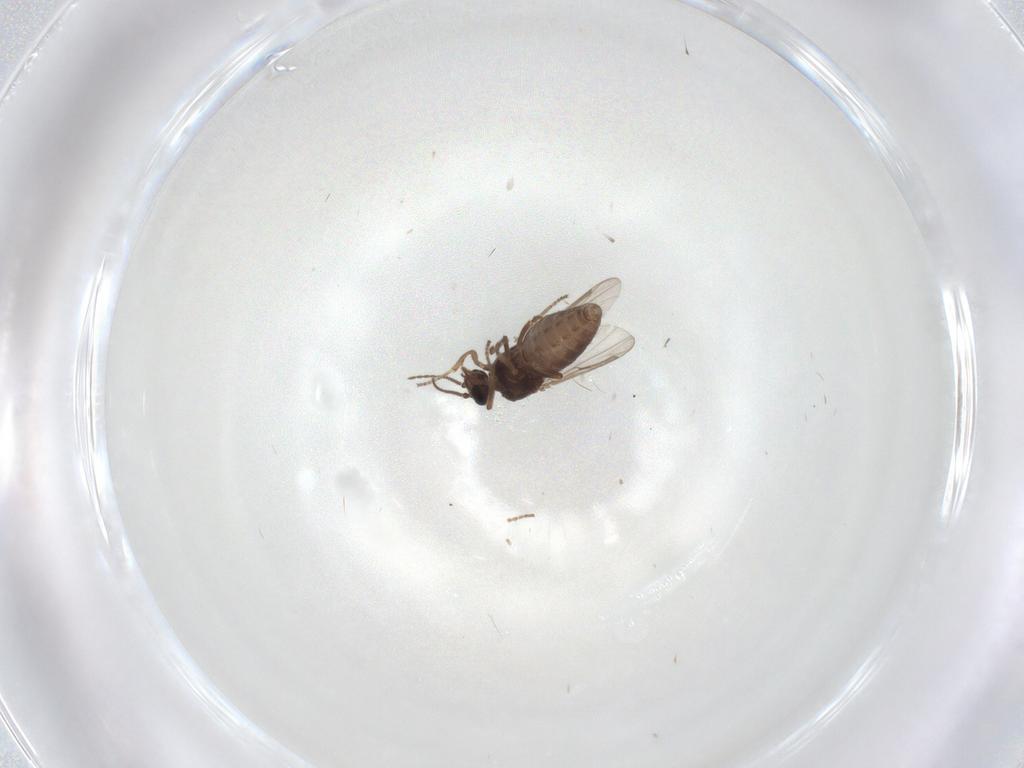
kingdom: Animalia
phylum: Arthropoda
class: Insecta
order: Diptera
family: Ceratopogonidae
